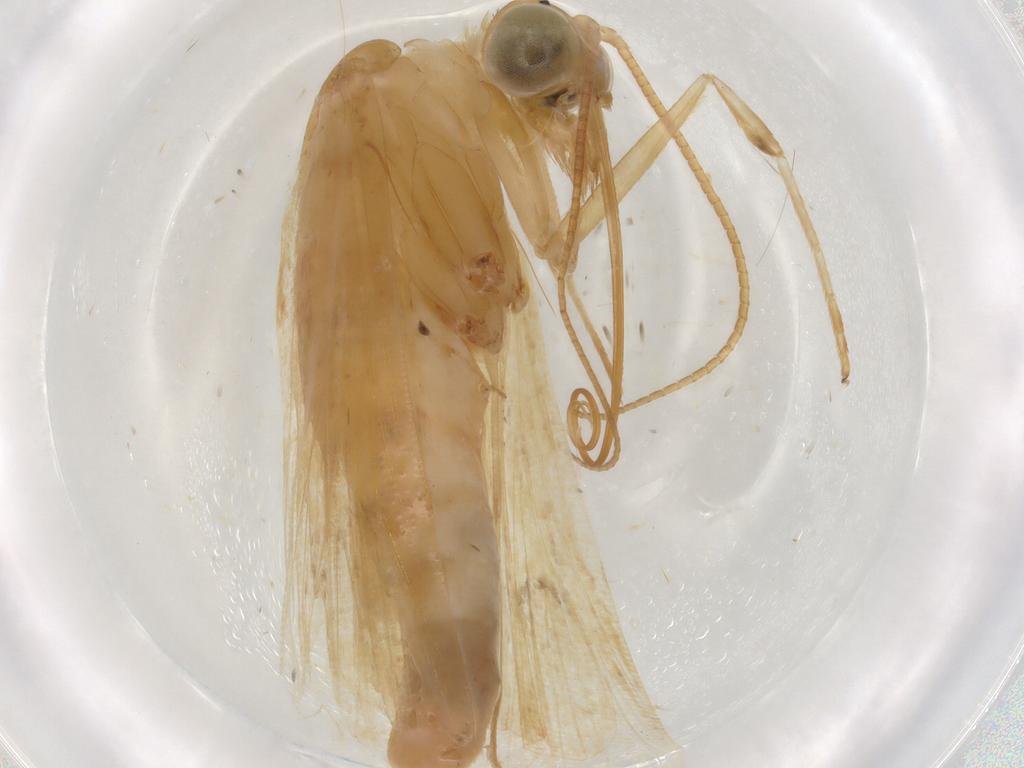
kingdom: Animalia
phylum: Arthropoda
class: Insecta
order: Lepidoptera
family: Crambidae
